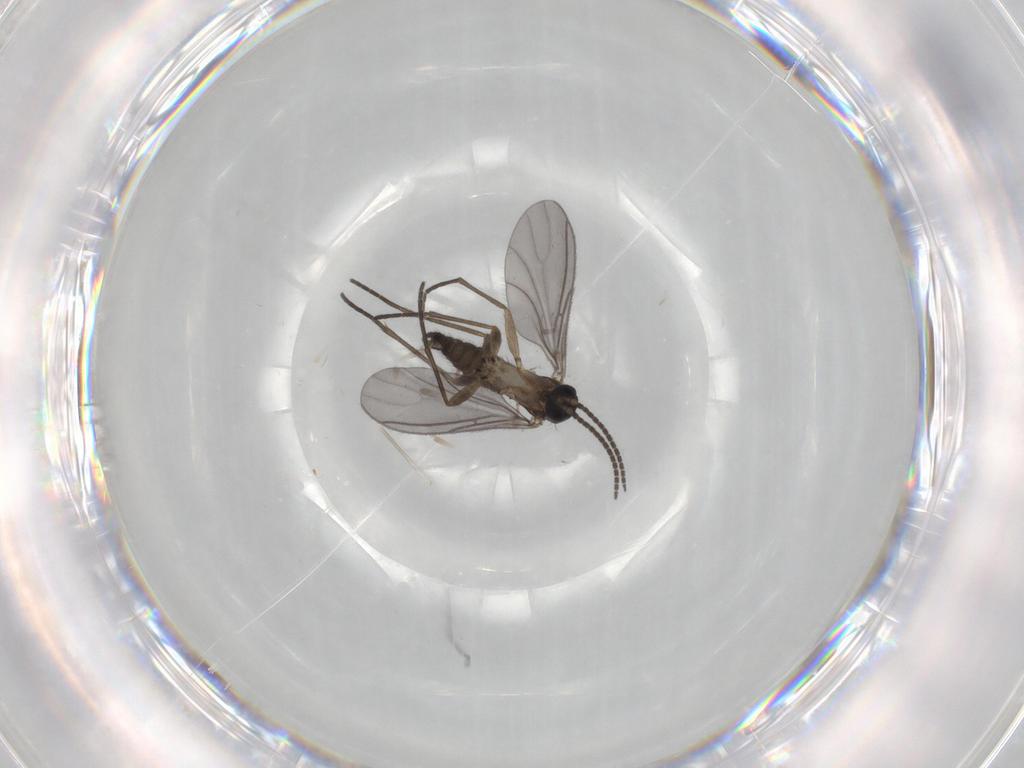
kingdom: Animalia
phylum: Arthropoda
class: Insecta
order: Diptera
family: Sciaridae
